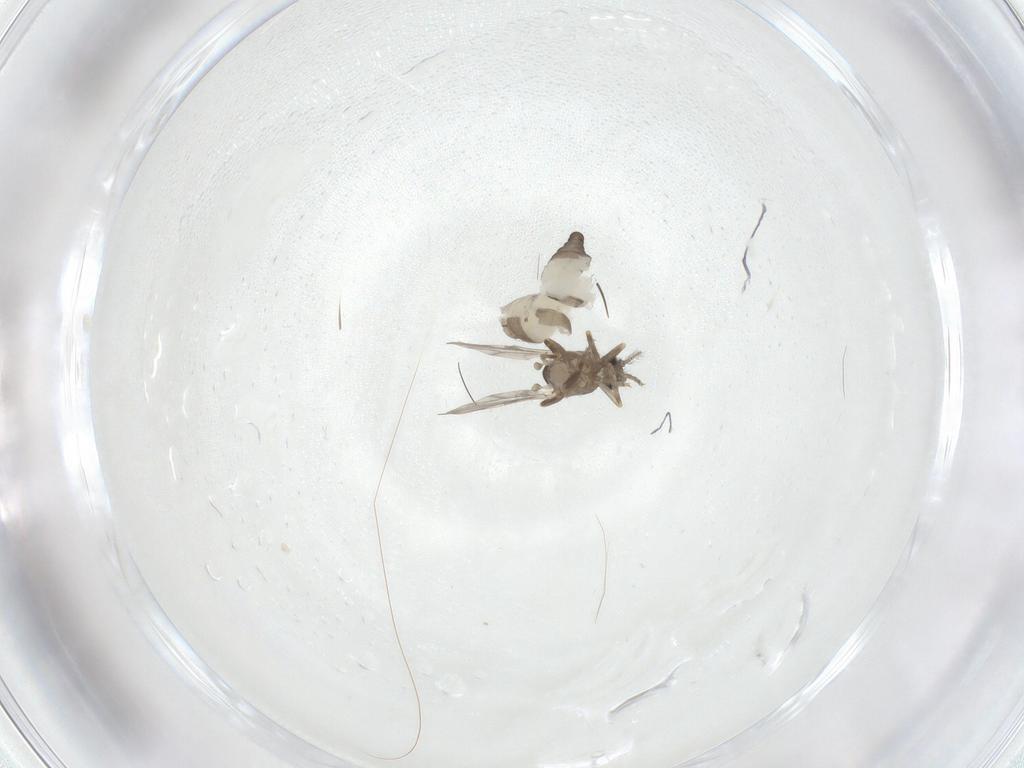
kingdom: Animalia
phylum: Arthropoda
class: Insecta
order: Diptera
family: Ceratopogonidae
